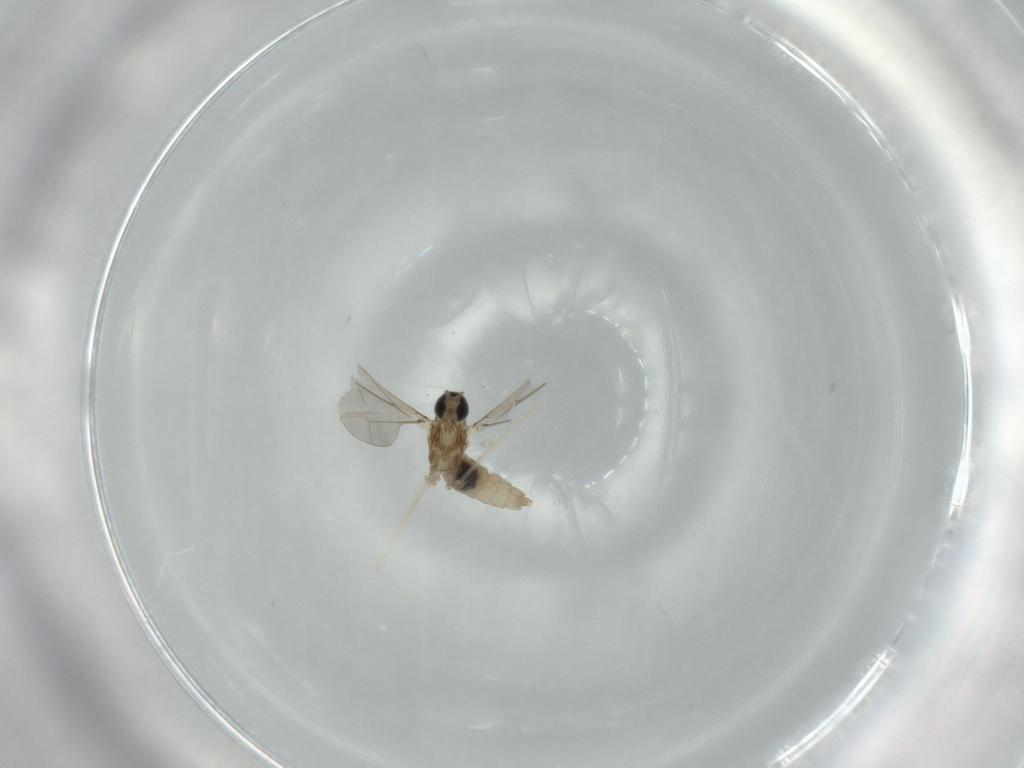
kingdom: Animalia
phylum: Arthropoda
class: Insecta
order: Diptera
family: Sciaridae
